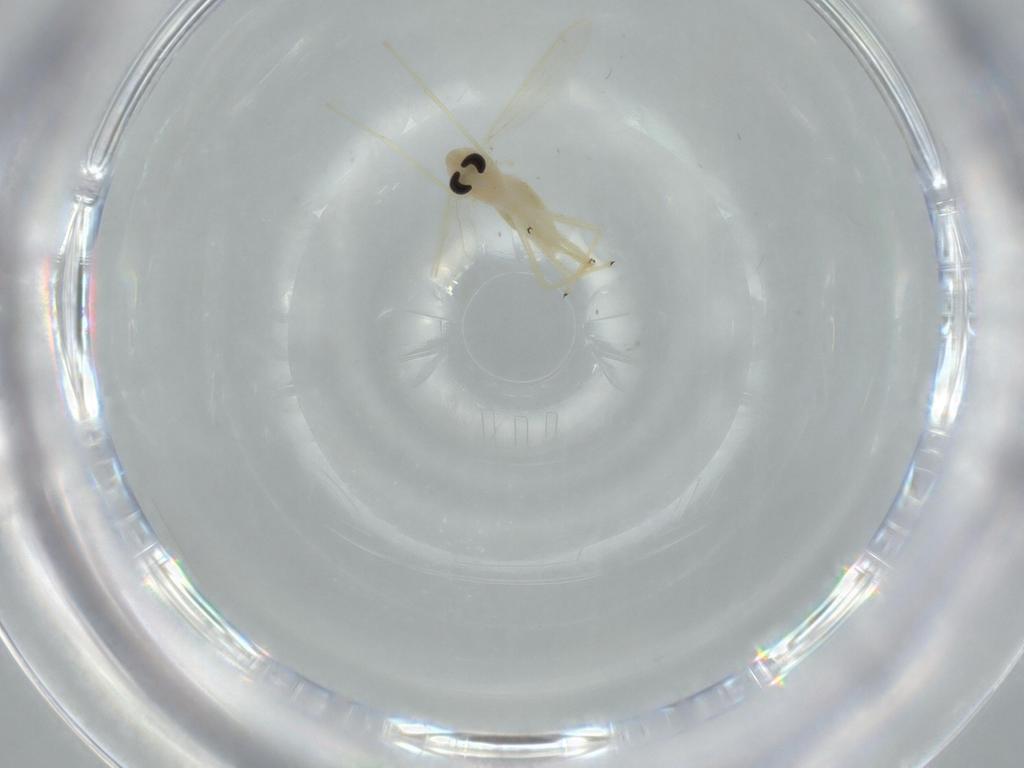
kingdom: Animalia
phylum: Arthropoda
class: Insecta
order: Diptera
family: Chironomidae
